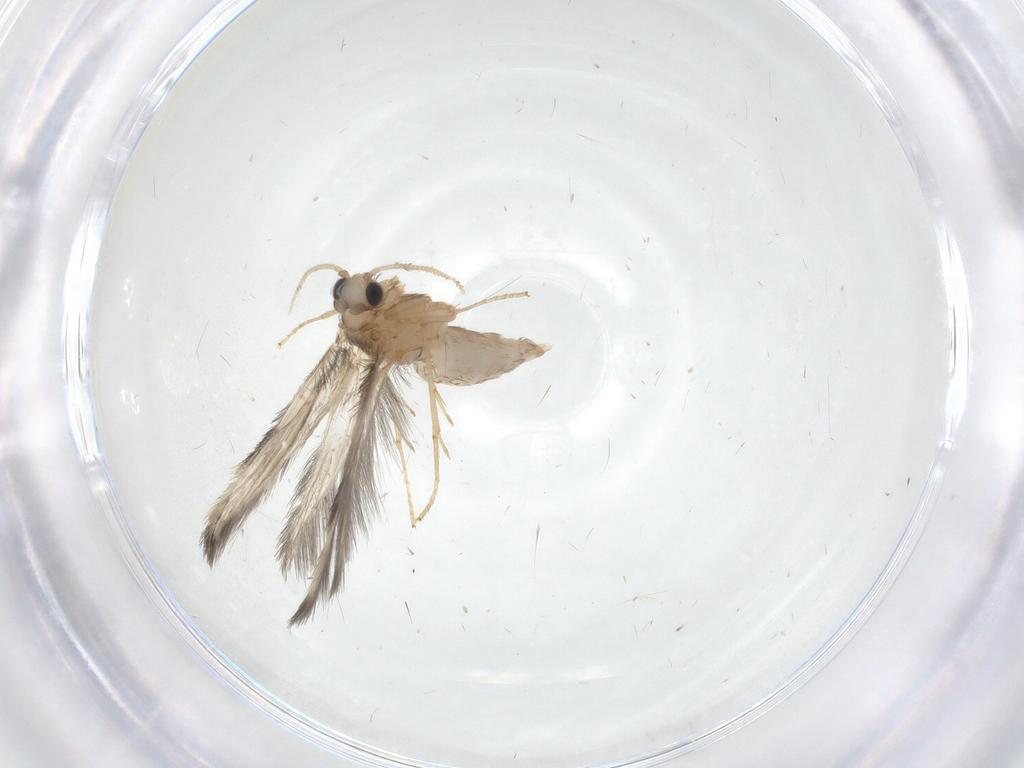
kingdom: Animalia
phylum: Arthropoda
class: Insecta
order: Trichoptera
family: Hydroptilidae
